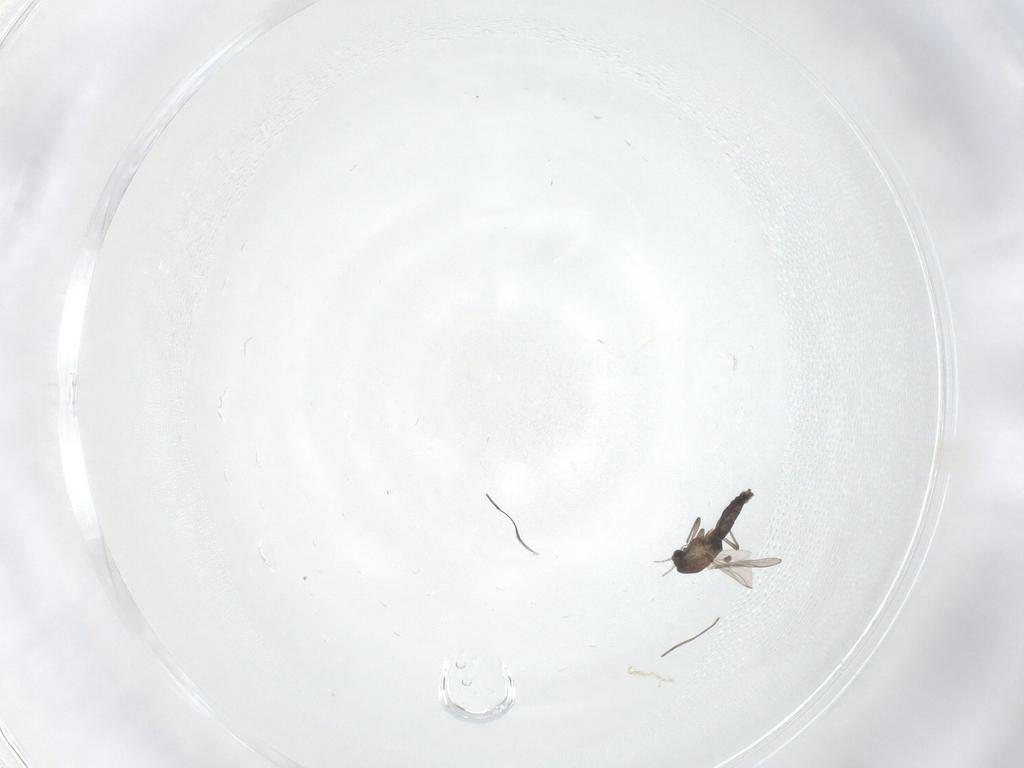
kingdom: Animalia
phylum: Arthropoda
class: Insecta
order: Diptera
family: Chironomidae
